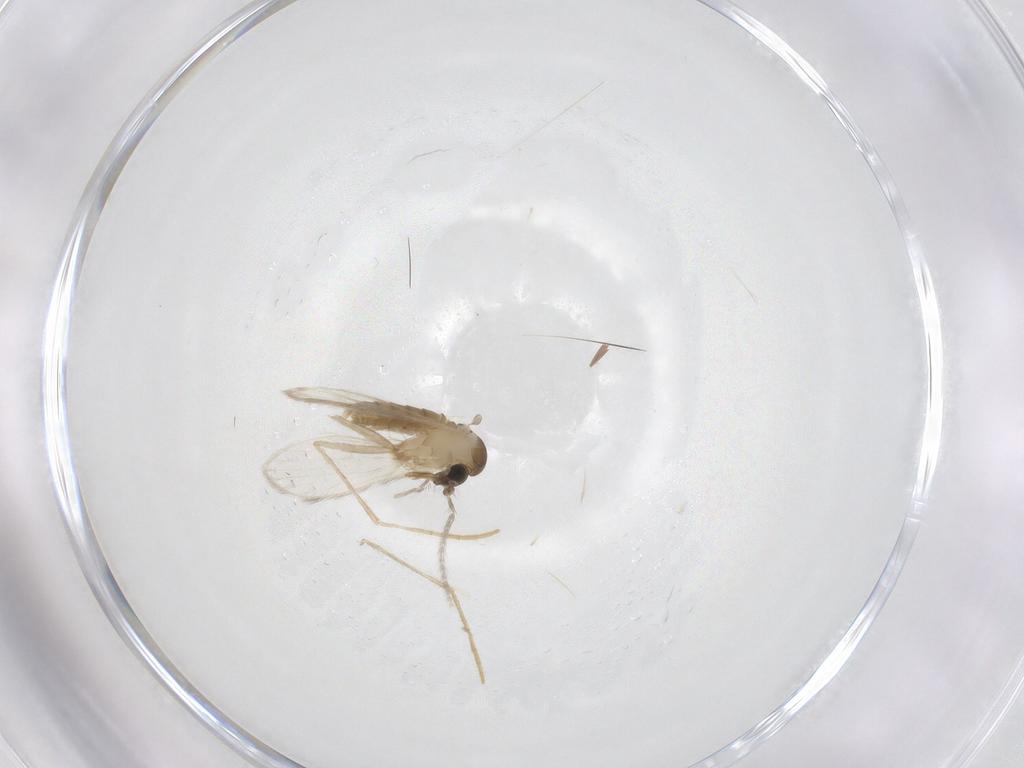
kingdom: Animalia
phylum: Arthropoda
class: Insecta
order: Diptera
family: Psychodidae
